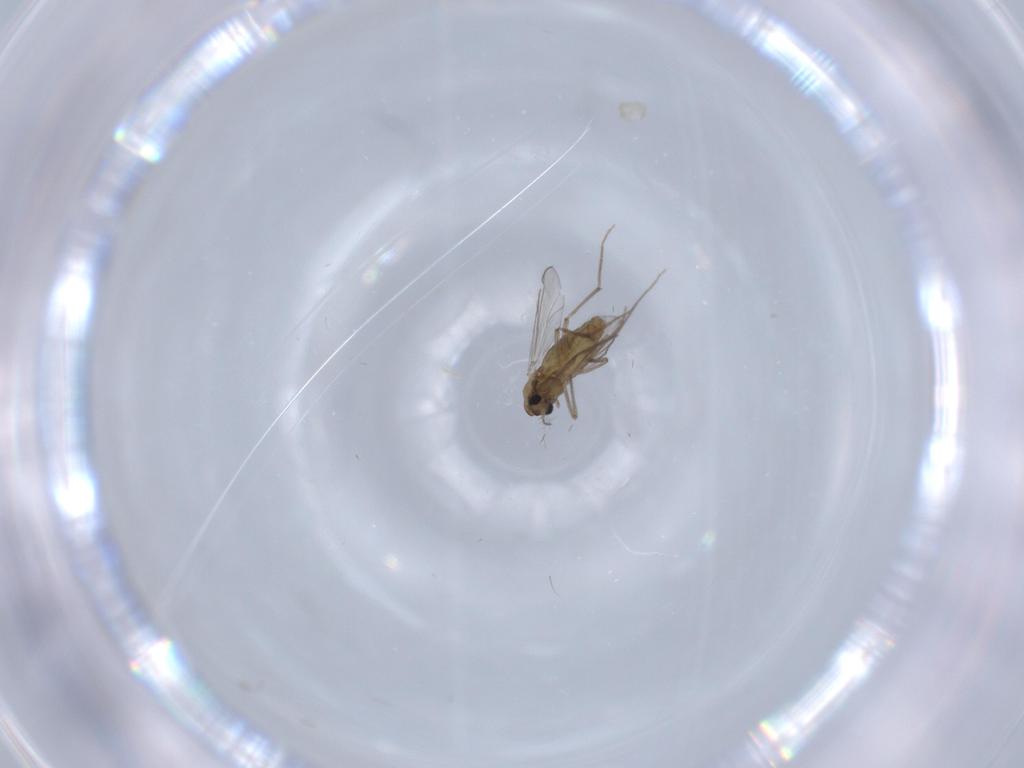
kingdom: Animalia
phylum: Arthropoda
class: Insecta
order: Diptera
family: Chironomidae
